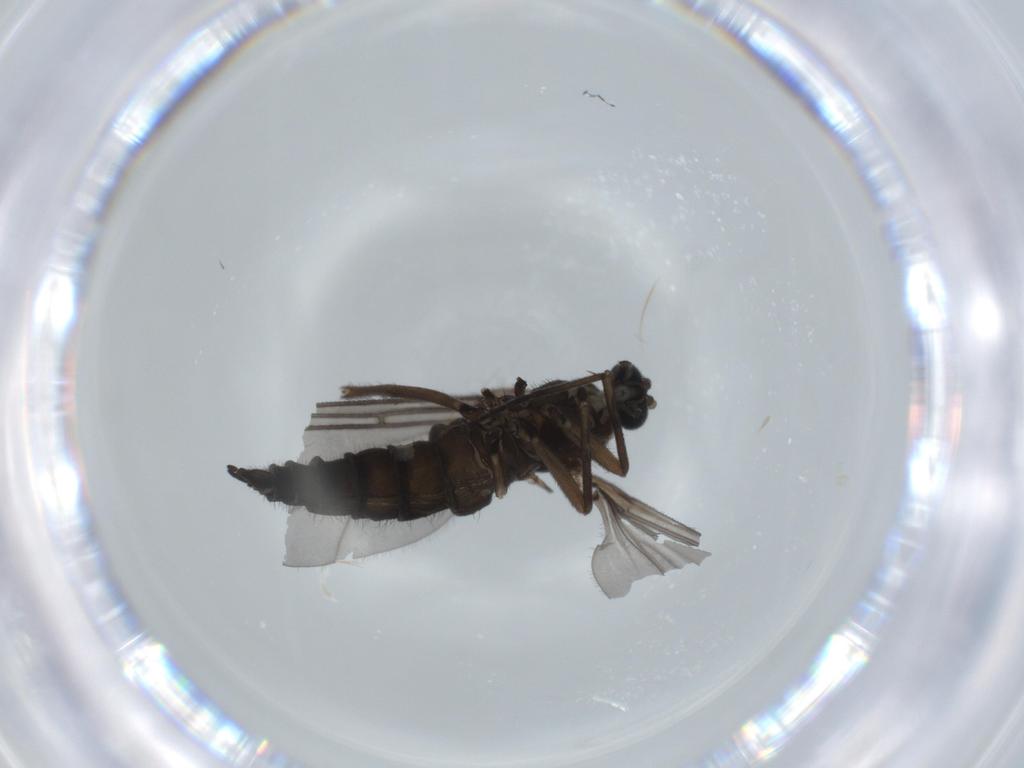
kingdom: Animalia
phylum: Arthropoda
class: Insecta
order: Diptera
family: Sciaridae
